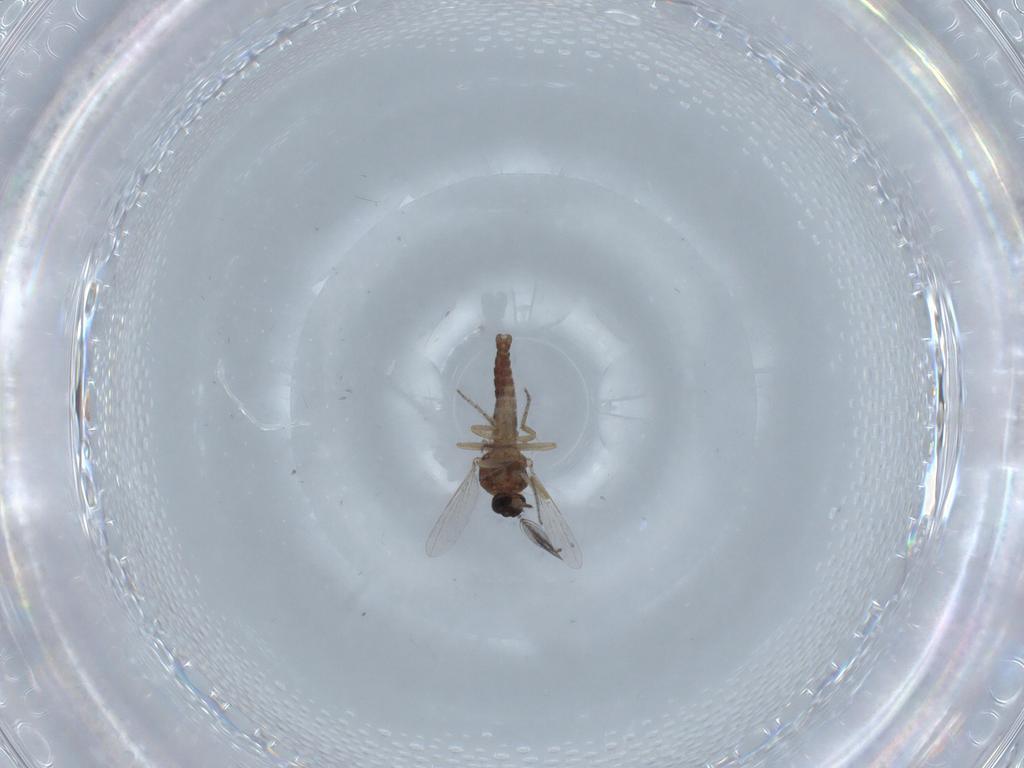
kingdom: Animalia
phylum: Arthropoda
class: Insecta
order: Diptera
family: Ceratopogonidae
